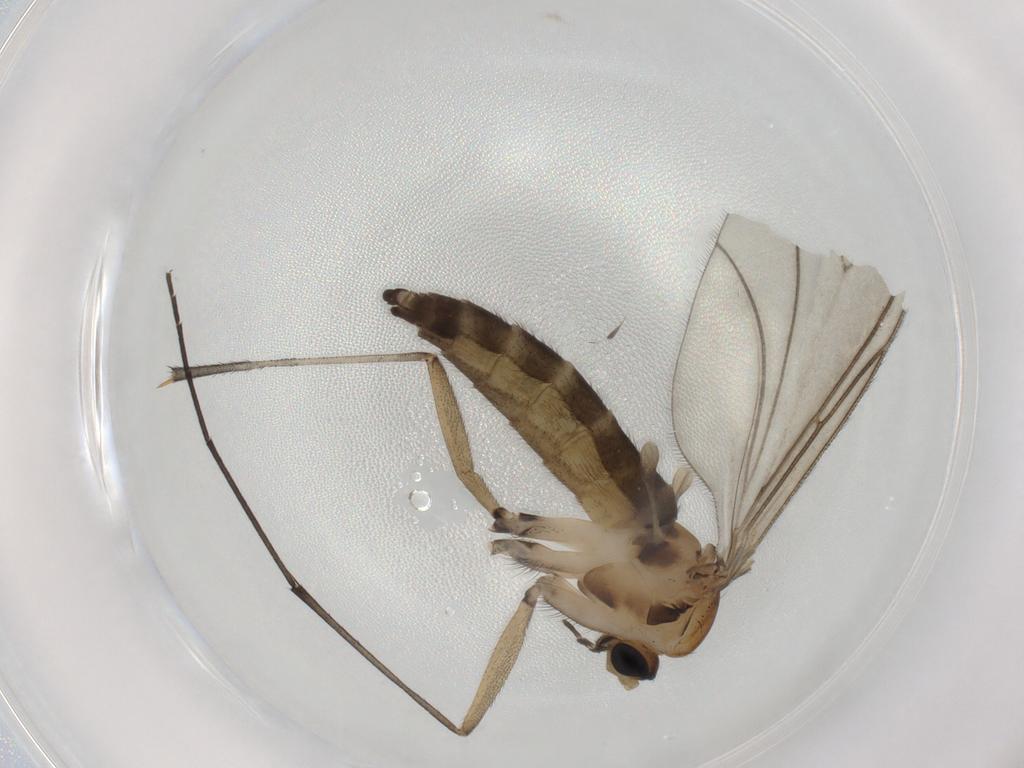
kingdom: Animalia
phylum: Arthropoda
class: Insecta
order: Diptera
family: Sciaridae
